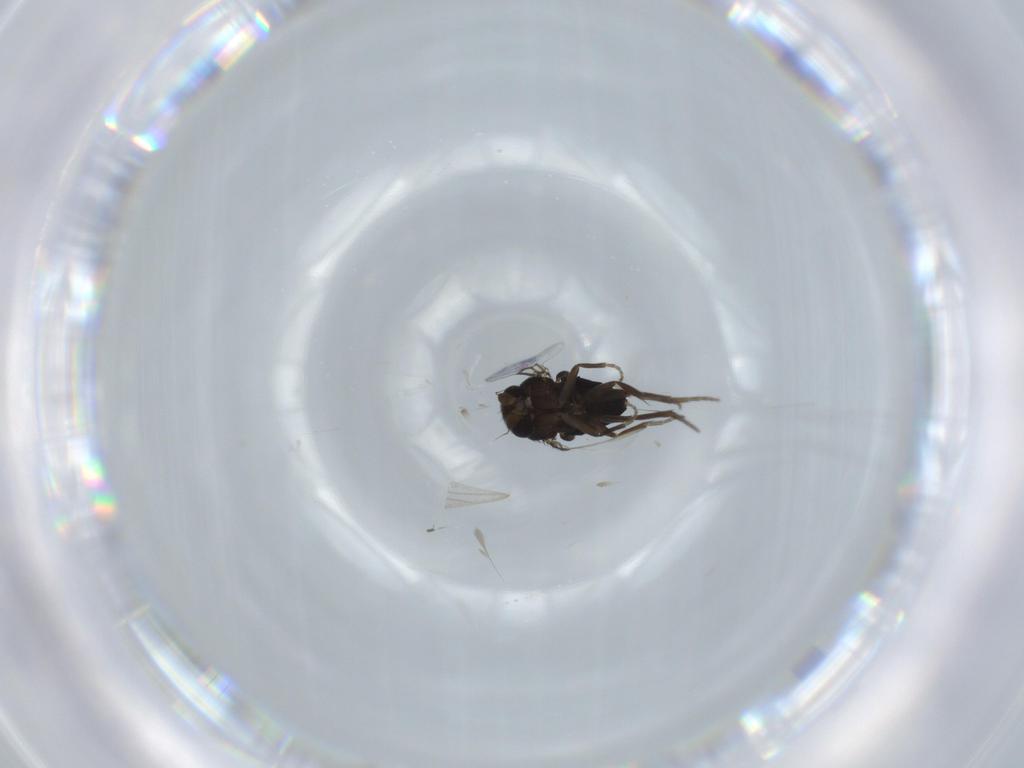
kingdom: Animalia
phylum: Arthropoda
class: Insecta
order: Diptera
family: Phoridae
